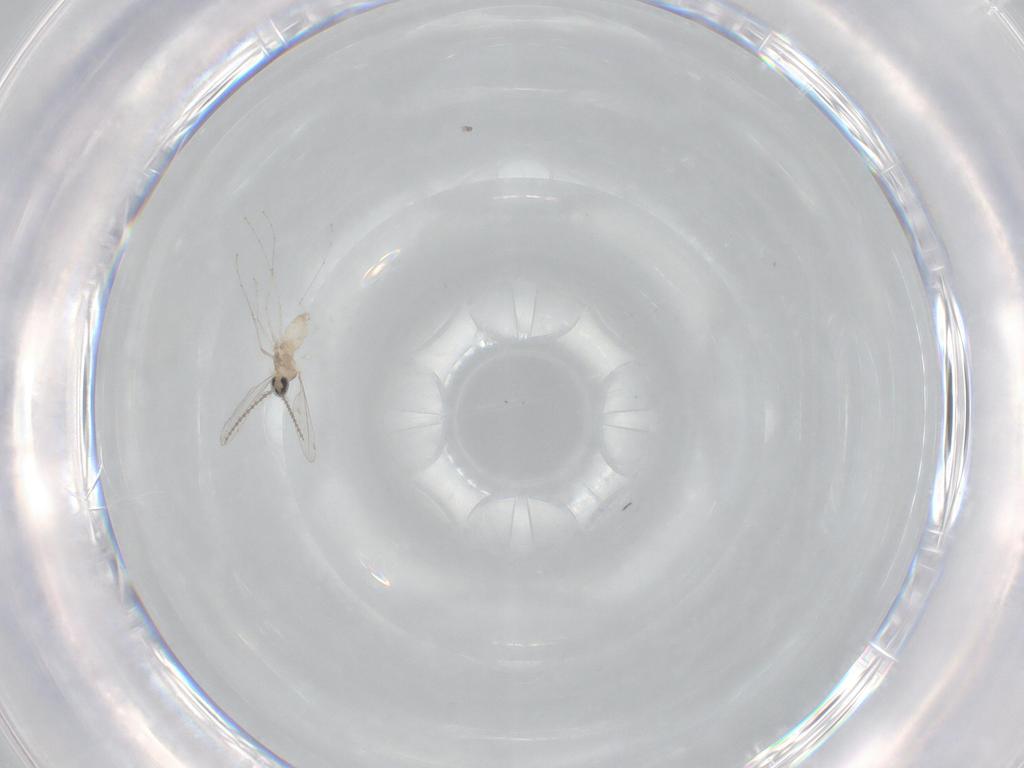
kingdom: Animalia
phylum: Arthropoda
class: Insecta
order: Diptera
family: Cecidomyiidae
